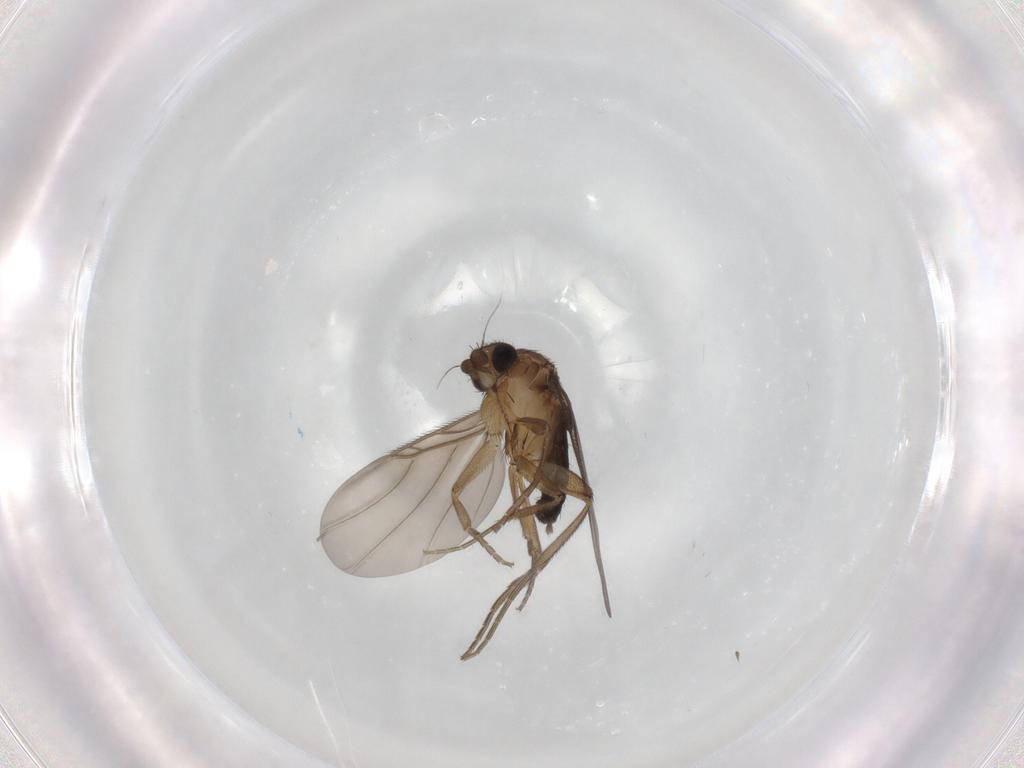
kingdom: Animalia
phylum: Arthropoda
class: Insecta
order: Diptera
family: Phoridae
